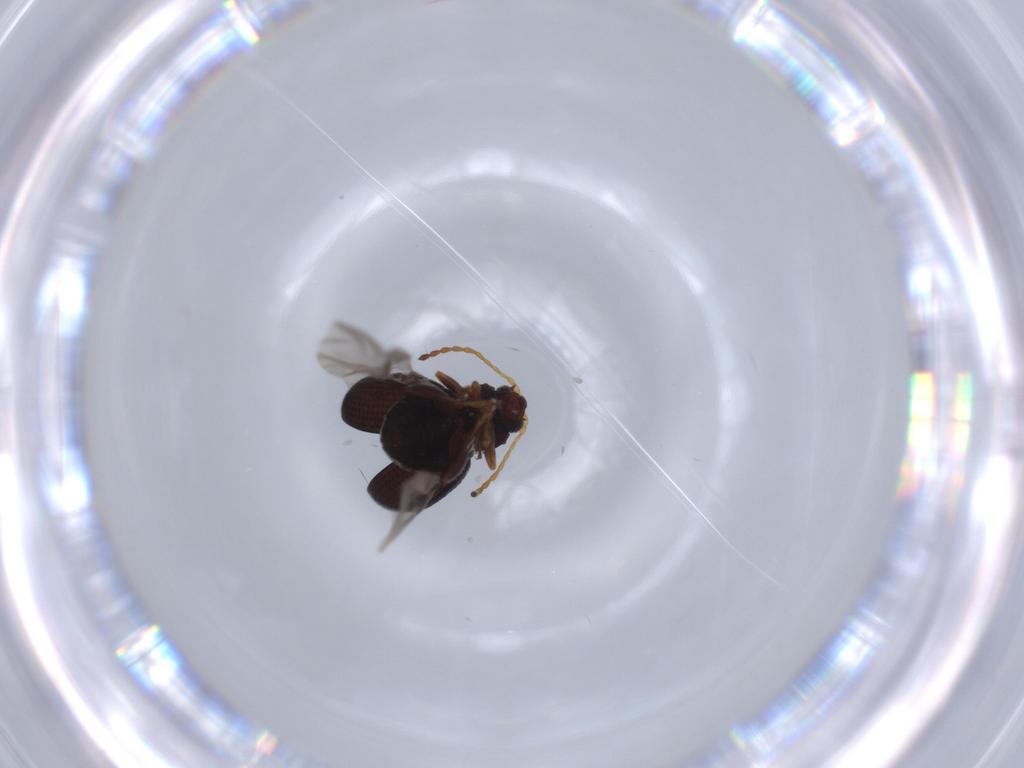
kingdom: Animalia
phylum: Arthropoda
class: Insecta
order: Coleoptera
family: Chrysomelidae
